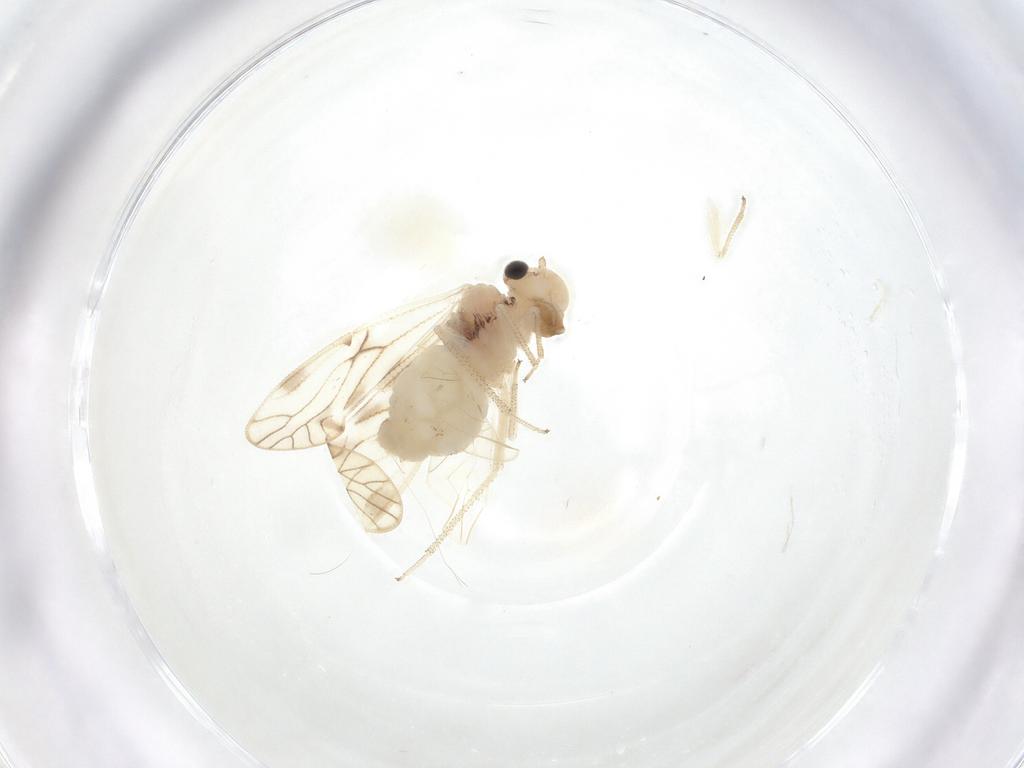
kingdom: Animalia
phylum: Arthropoda
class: Insecta
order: Psocodea
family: Caeciliusidae
